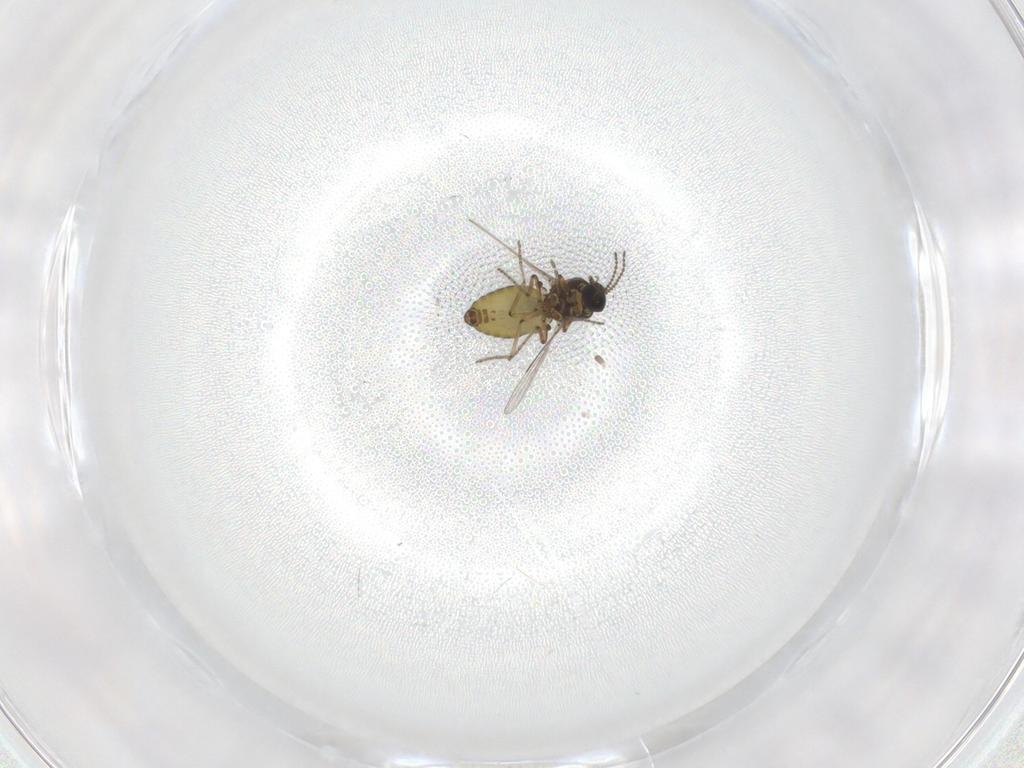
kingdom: Animalia
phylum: Arthropoda
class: Insecta
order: Diptera
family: Ceratopogonidae
